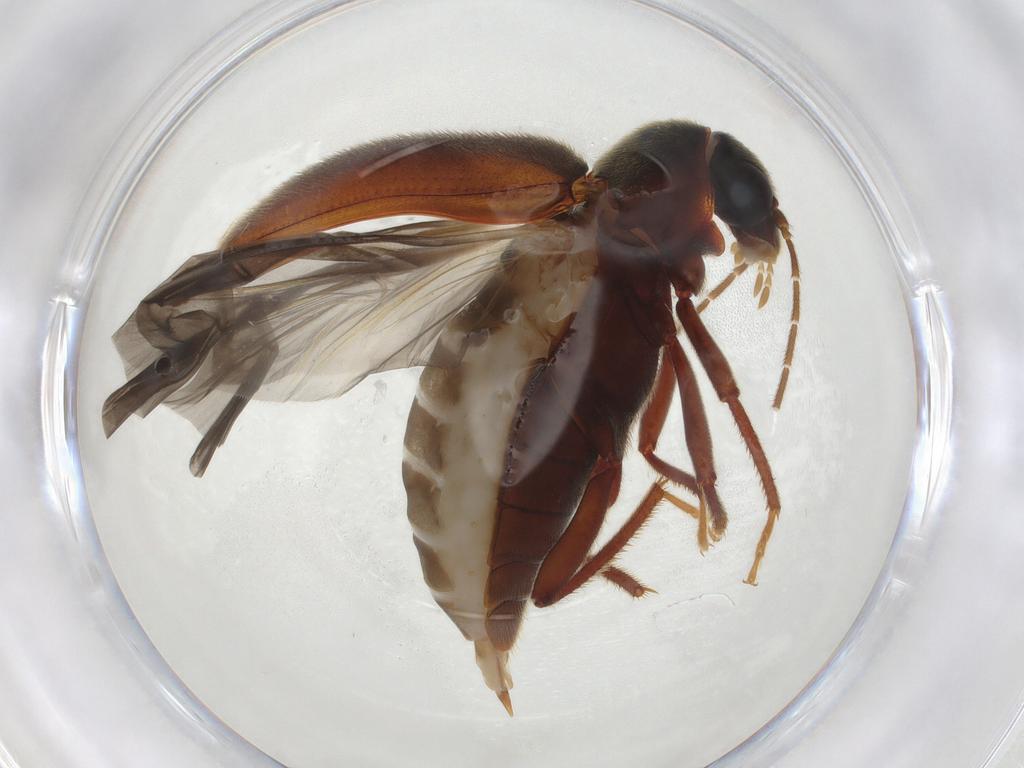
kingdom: Animalia
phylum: Arthropoda
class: Insecta
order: Coleoptera
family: Ptilodactylidae
